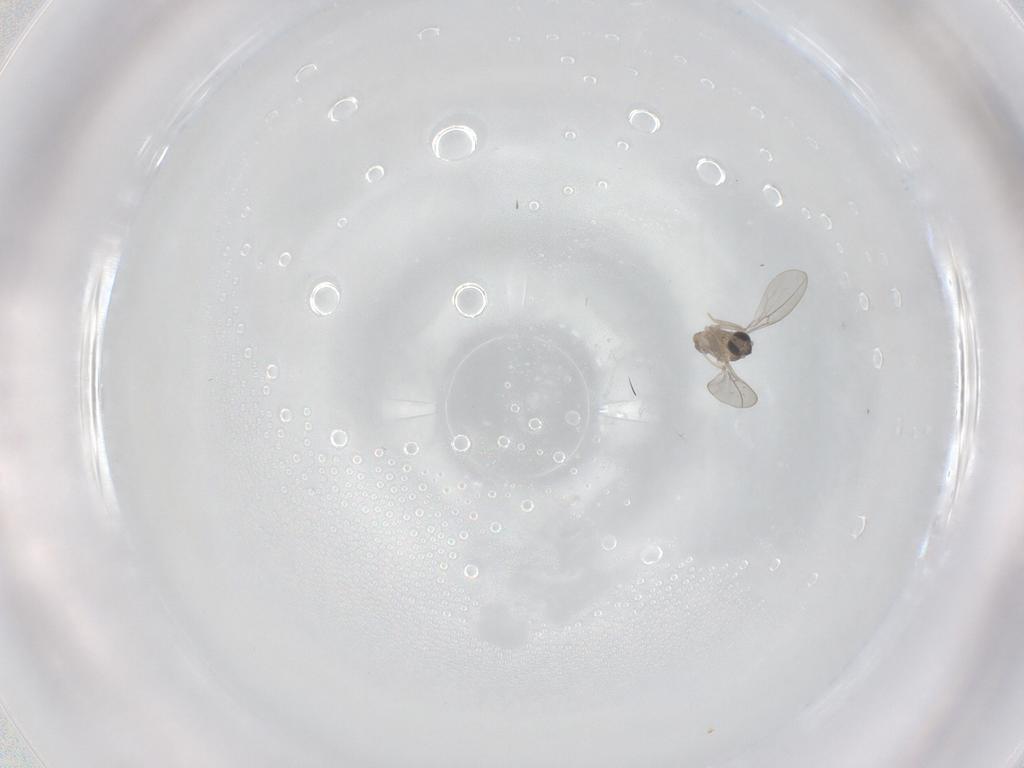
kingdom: Animalia
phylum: Arthropoda
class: Insecta
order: Diptera
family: Cecidomyiidae
